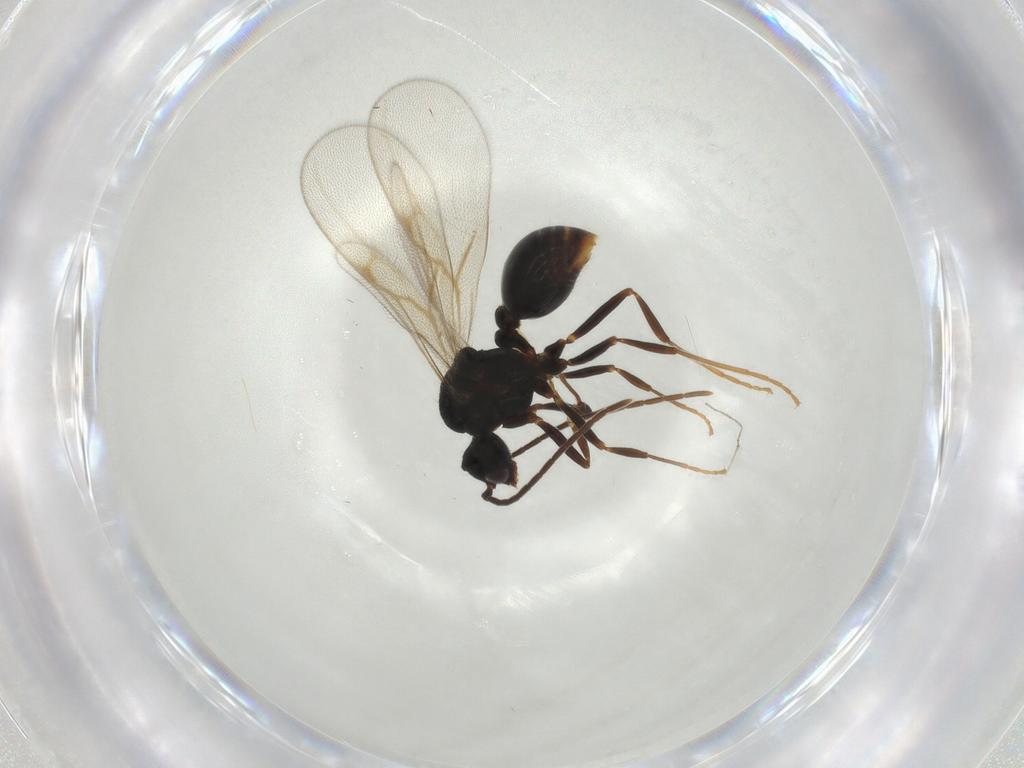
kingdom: Animalia
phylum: Arthropoda
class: Insecta
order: Hymenoptera
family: Formicidae
